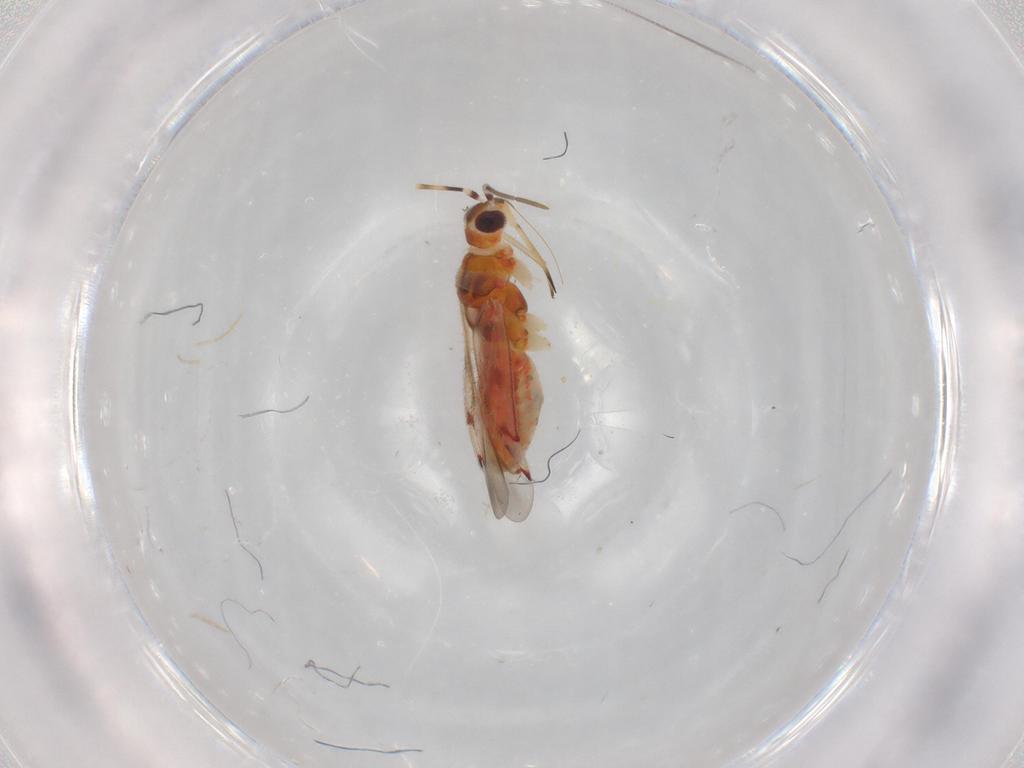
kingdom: Animalia
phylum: Arthropoda
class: Insecta
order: Hemiptera
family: Miridae
